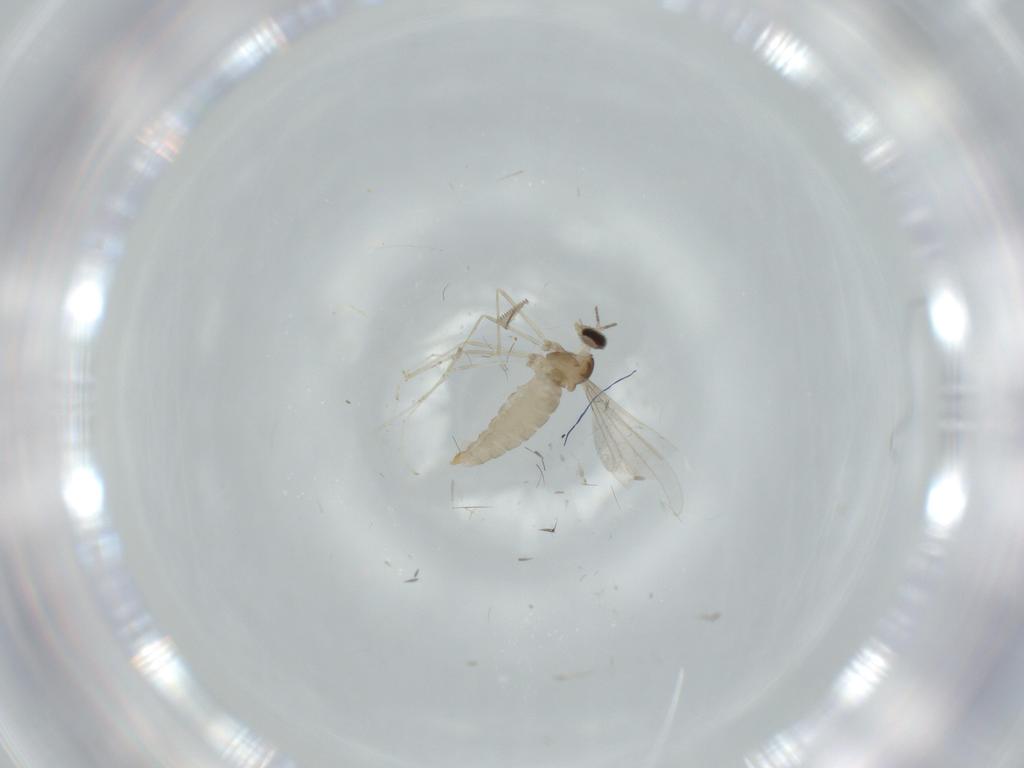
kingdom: Animalia
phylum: Arthropoda
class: Insecta
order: Diptera
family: Cecidomyiidae
